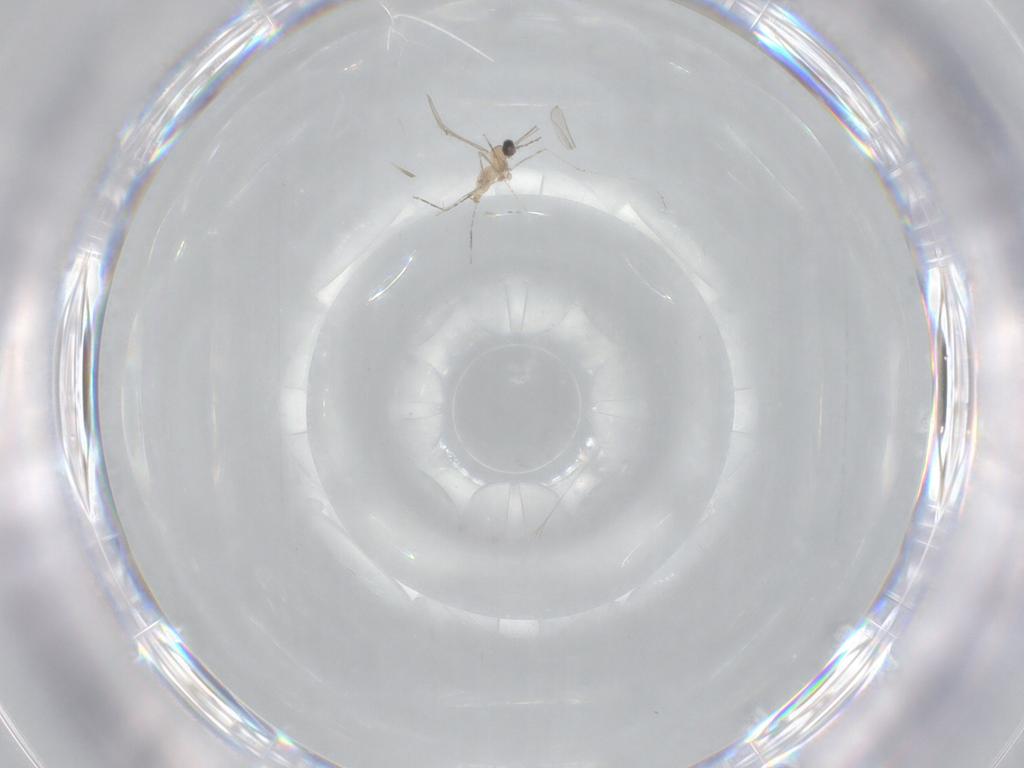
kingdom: Animalia
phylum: Arthropoda
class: Insecta
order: Diptera
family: Cecidomyiidae
